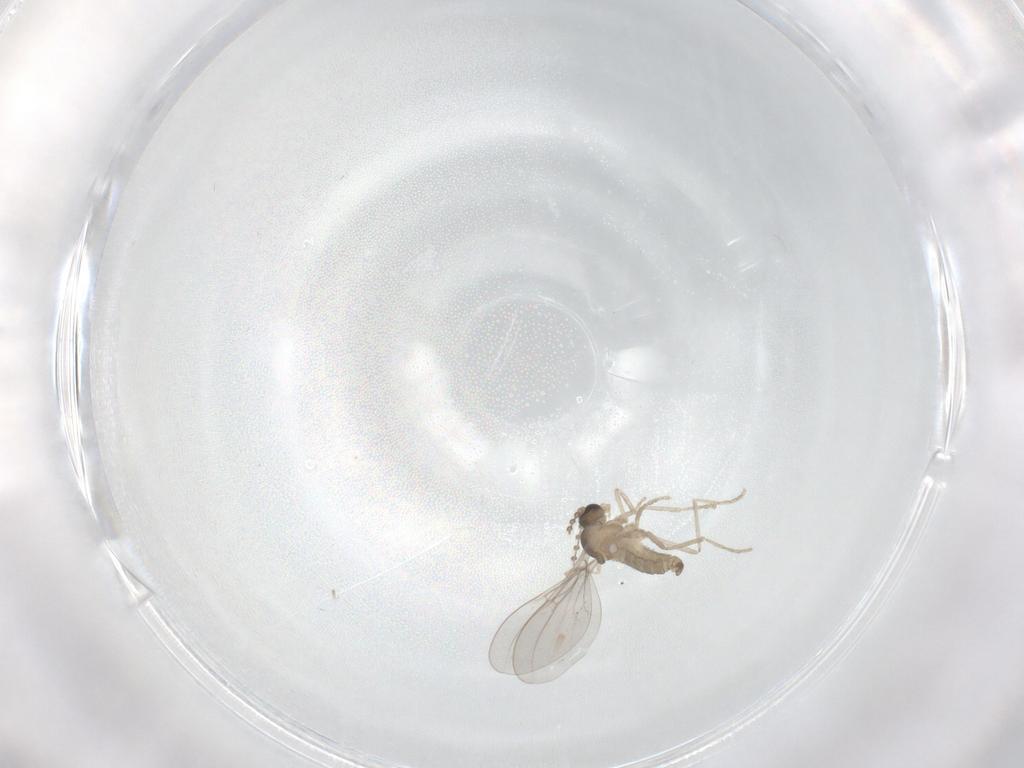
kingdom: Animalia
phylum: Arthropoda
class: Insecta
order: Diptera
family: Cecidomyiidae
